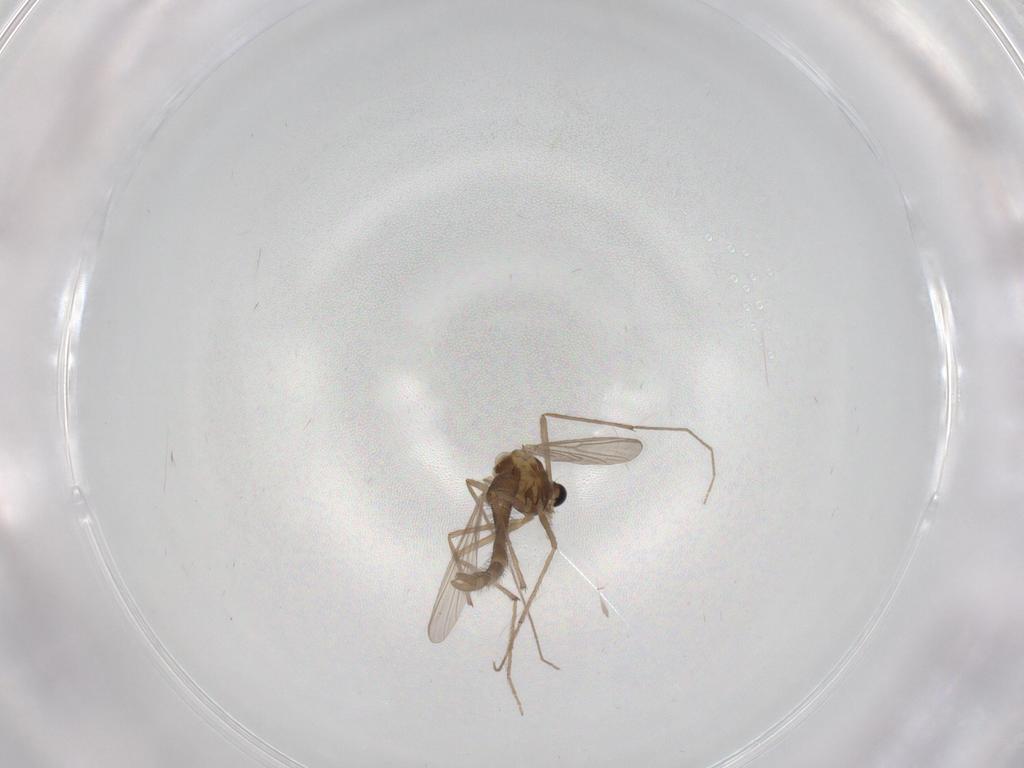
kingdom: Animalia
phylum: Arthropoda
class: Insecta
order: Diptera
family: Chironomidae
